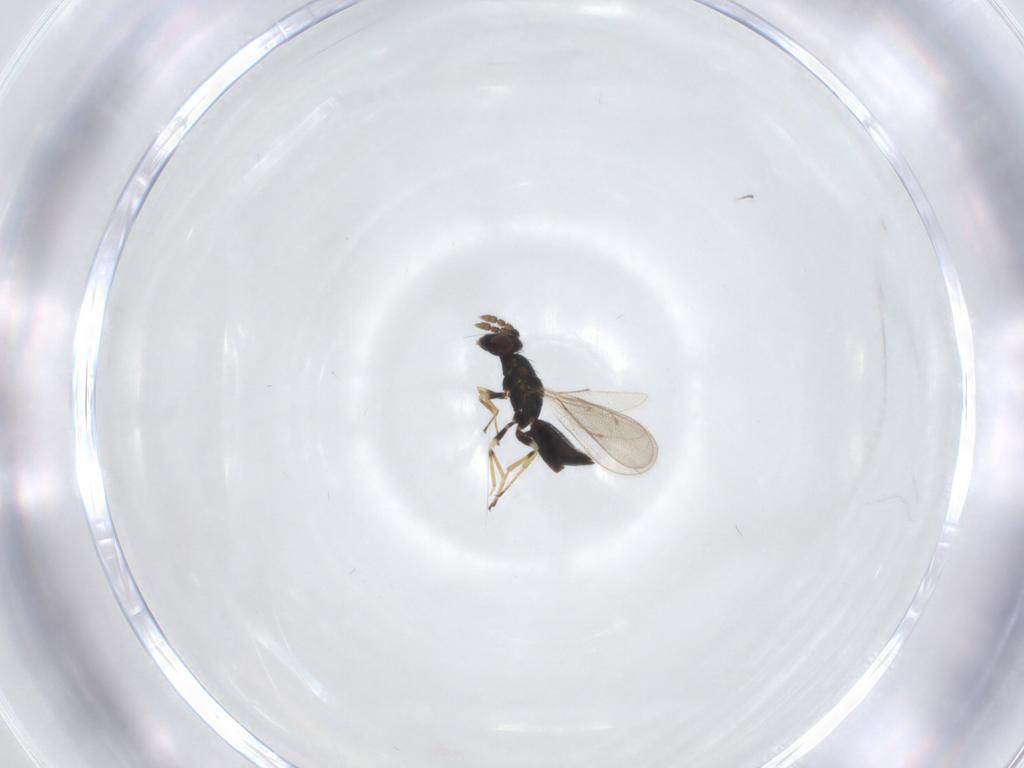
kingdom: Animalia
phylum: Arthropoda
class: Insecta
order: Hymenoptera
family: Eulophidae
